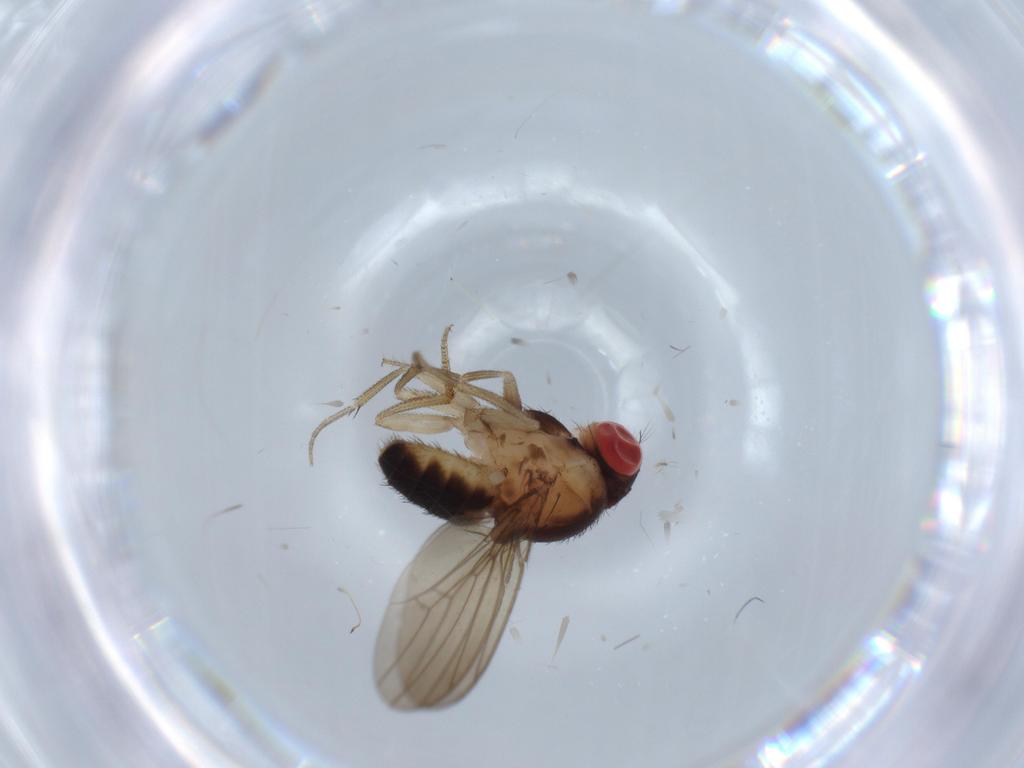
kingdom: Animalia
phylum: Arthropoda
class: Insecta
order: Diptera
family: Drosophilidae
